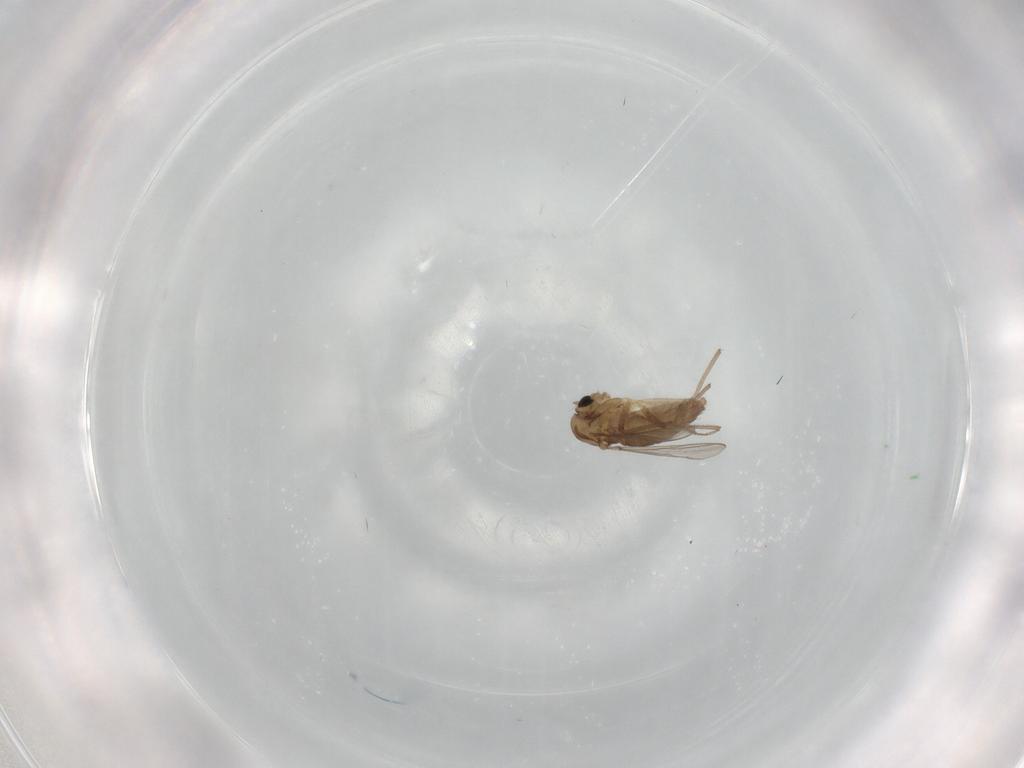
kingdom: Animalia
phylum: Arthropoda
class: Insecta
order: Diptera
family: Chironomidae
